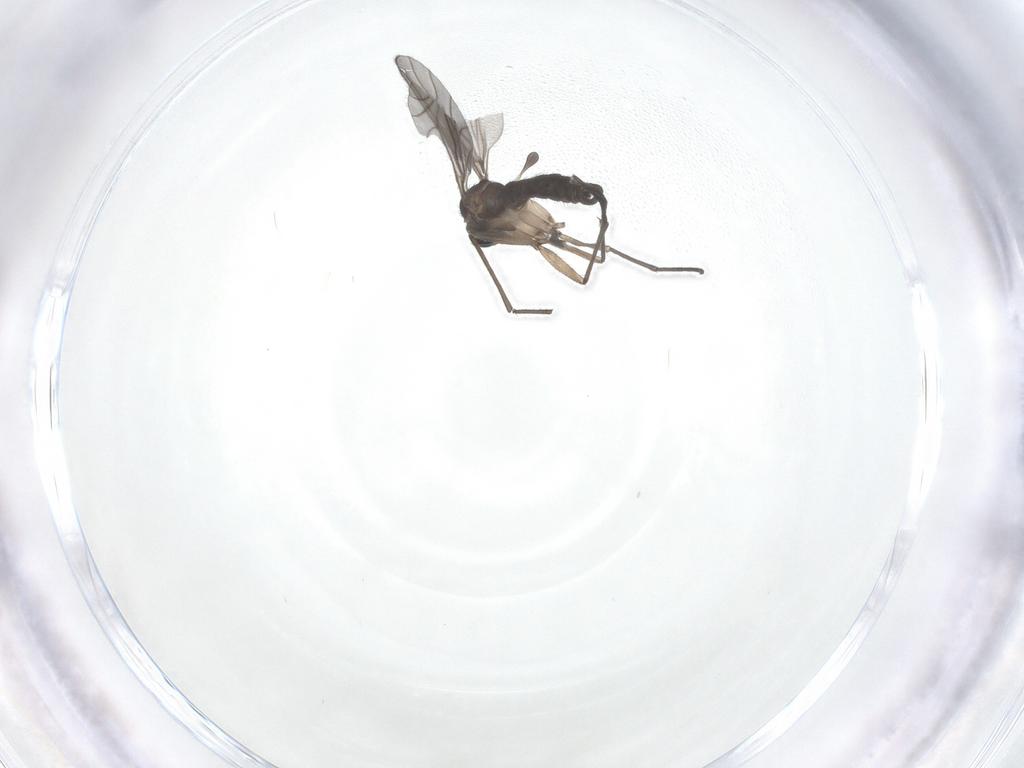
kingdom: Animalia
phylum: Arthropoda
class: Insecta
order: Diptera
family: Sciaridae
